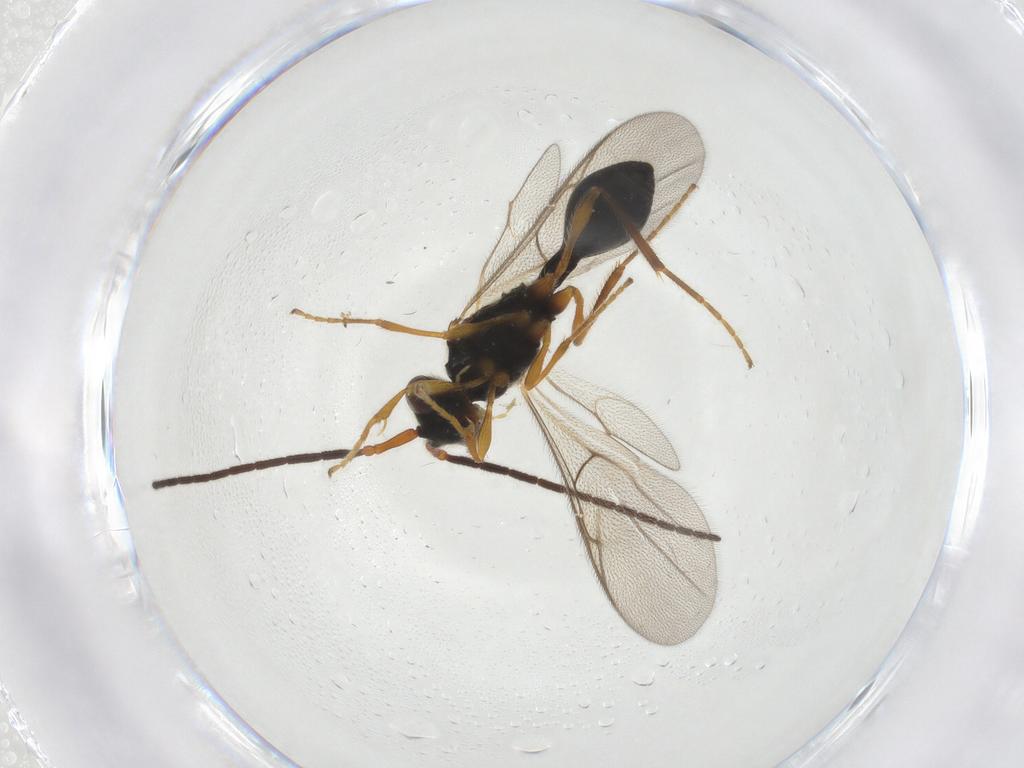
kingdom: Animalia
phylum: Arthropoda
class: Insecta
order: Hymenoptera
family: Diapriidae
